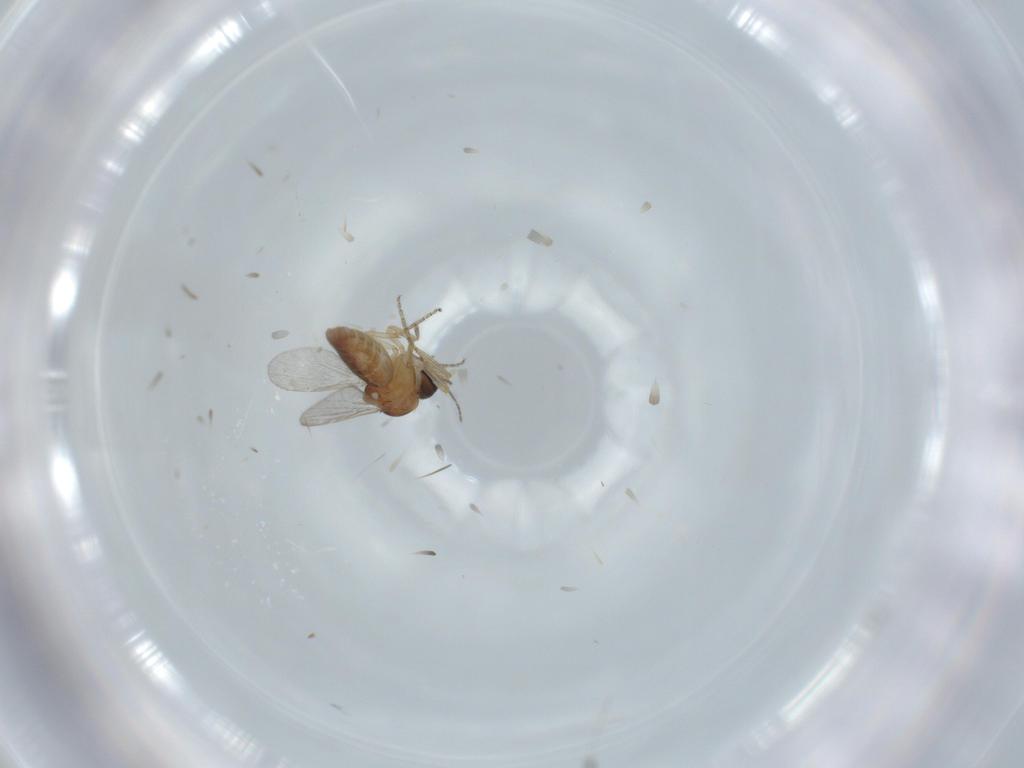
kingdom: Animalia
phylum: Arthropoda
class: Insecta
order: Diptera
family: Ceratopogonidae
